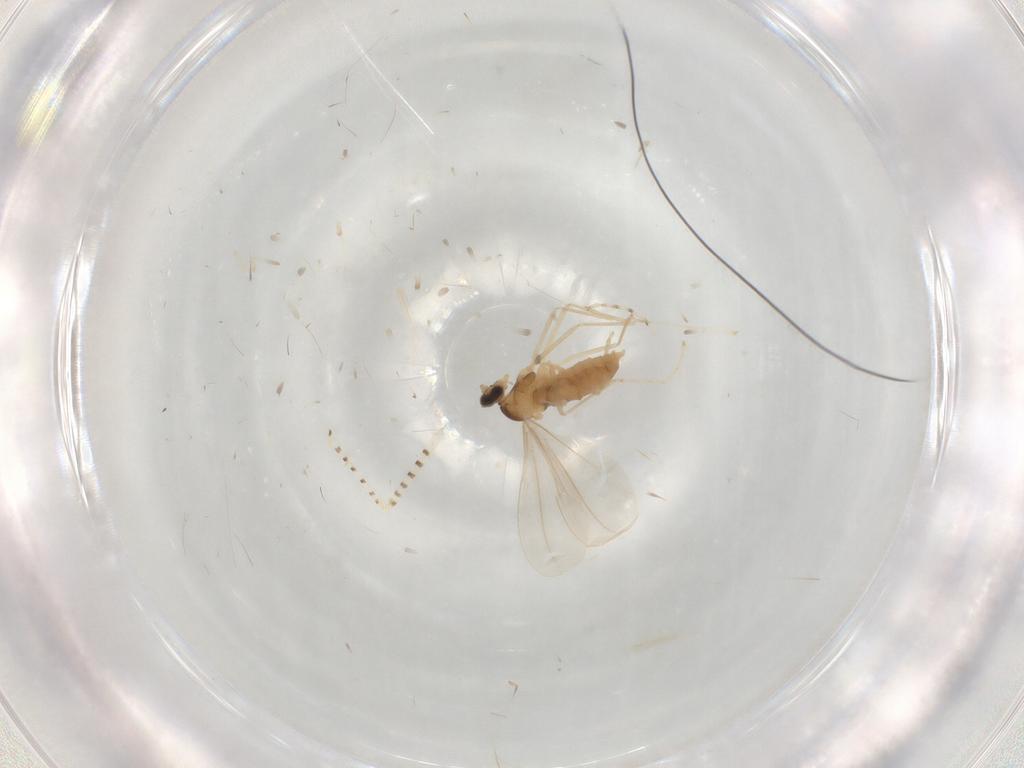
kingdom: Animalia
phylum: Arthropoda
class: Insecta
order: Diptera
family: Cecidomyiidae
